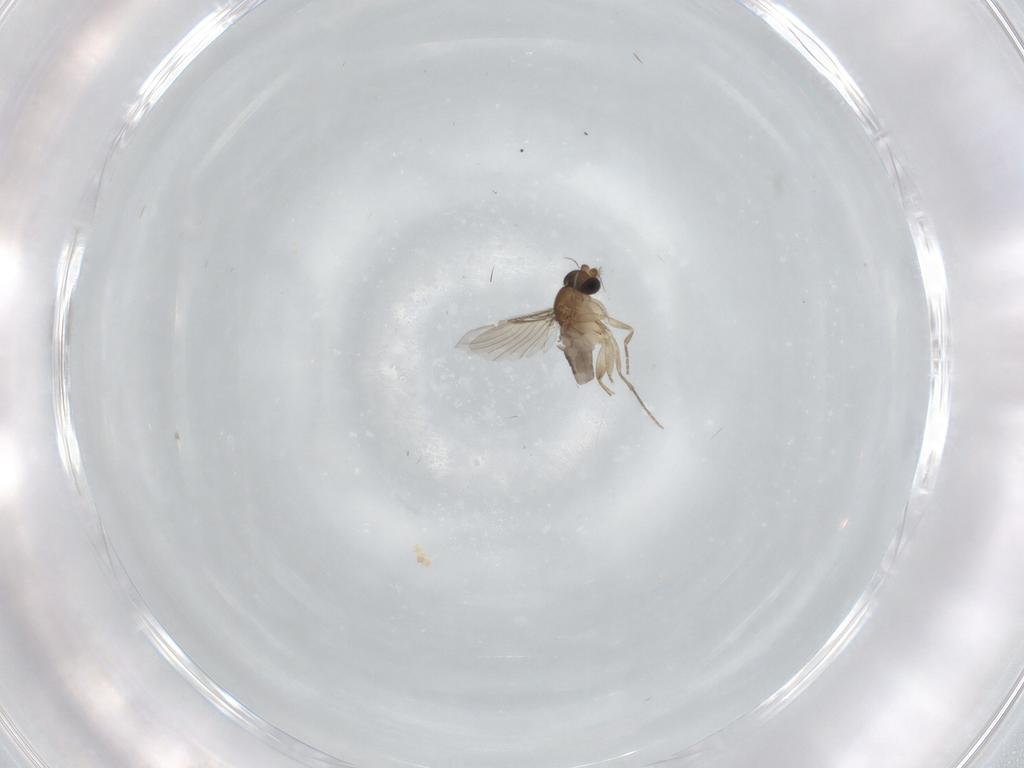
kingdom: Animalia
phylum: Arthropoda
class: Insecta
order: Diptera
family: Phoridae
